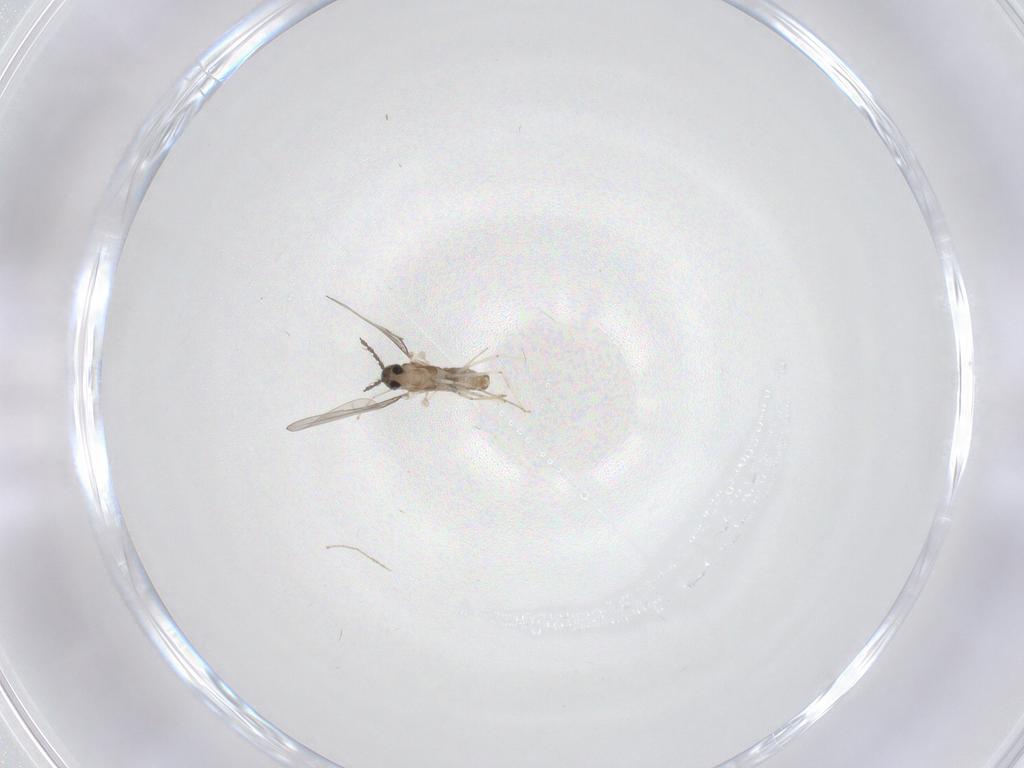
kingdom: Animalia
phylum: Arthropoda
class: Insecta
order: Diptera
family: Cecidomyiidae
